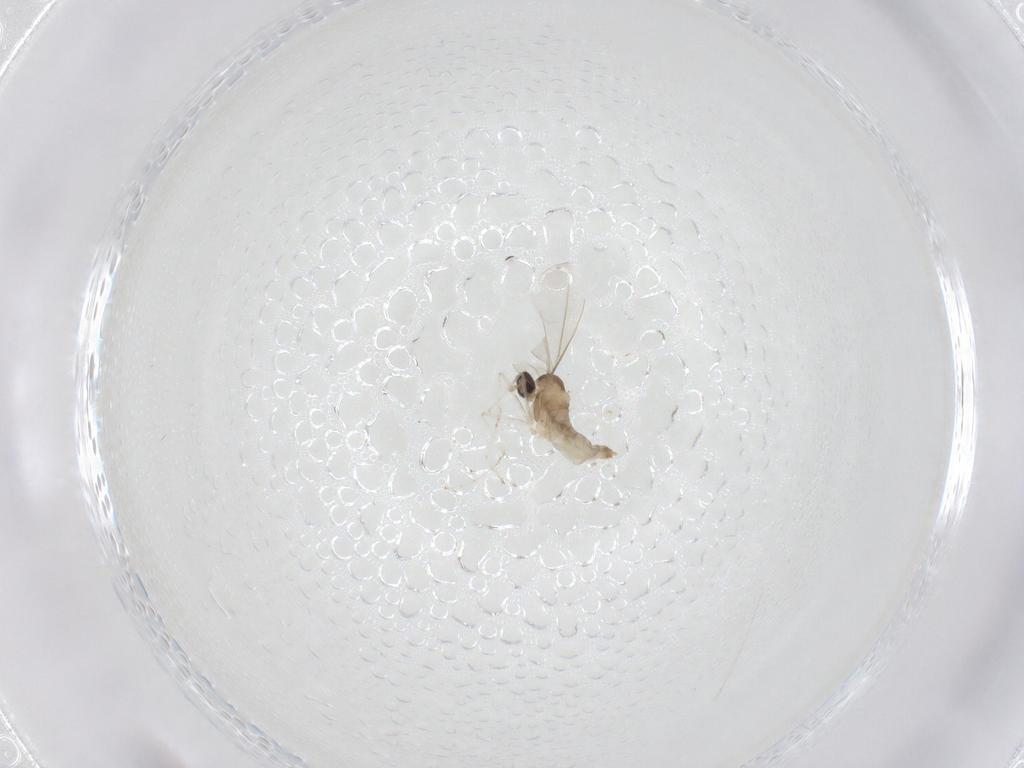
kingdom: Animalia
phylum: Arthropoda
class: Insecta
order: Diptera
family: Cecidomyiidae
